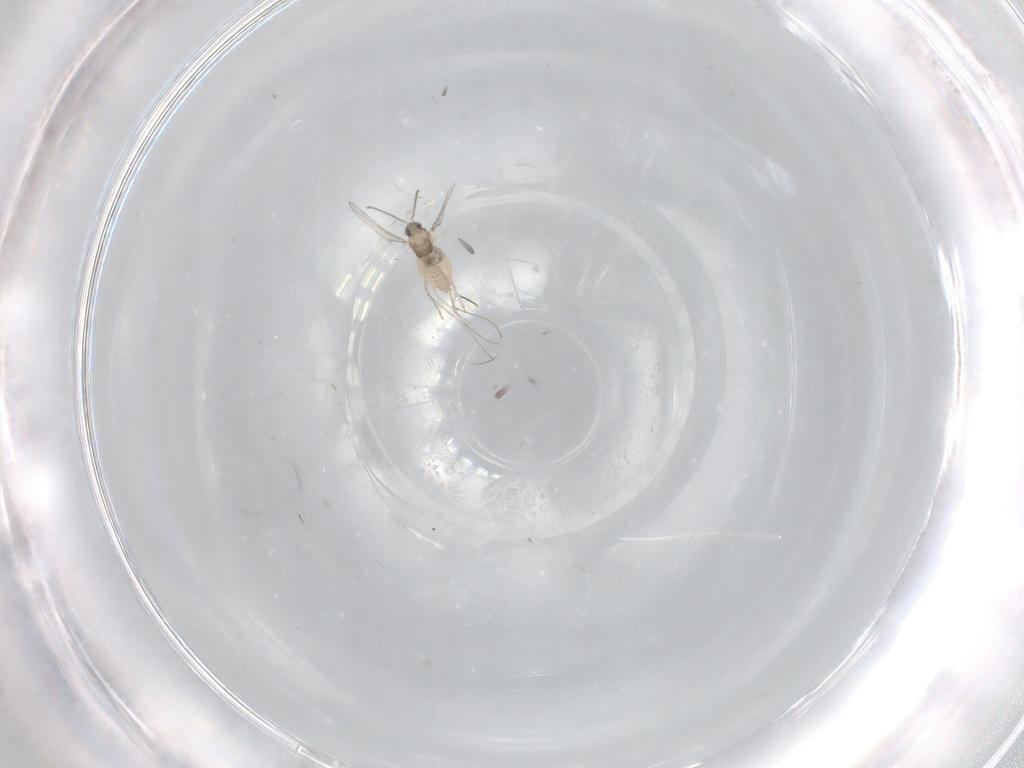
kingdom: Animalia
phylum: Arthropoda
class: Insecta
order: Diptera
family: Cecidomyiidae
